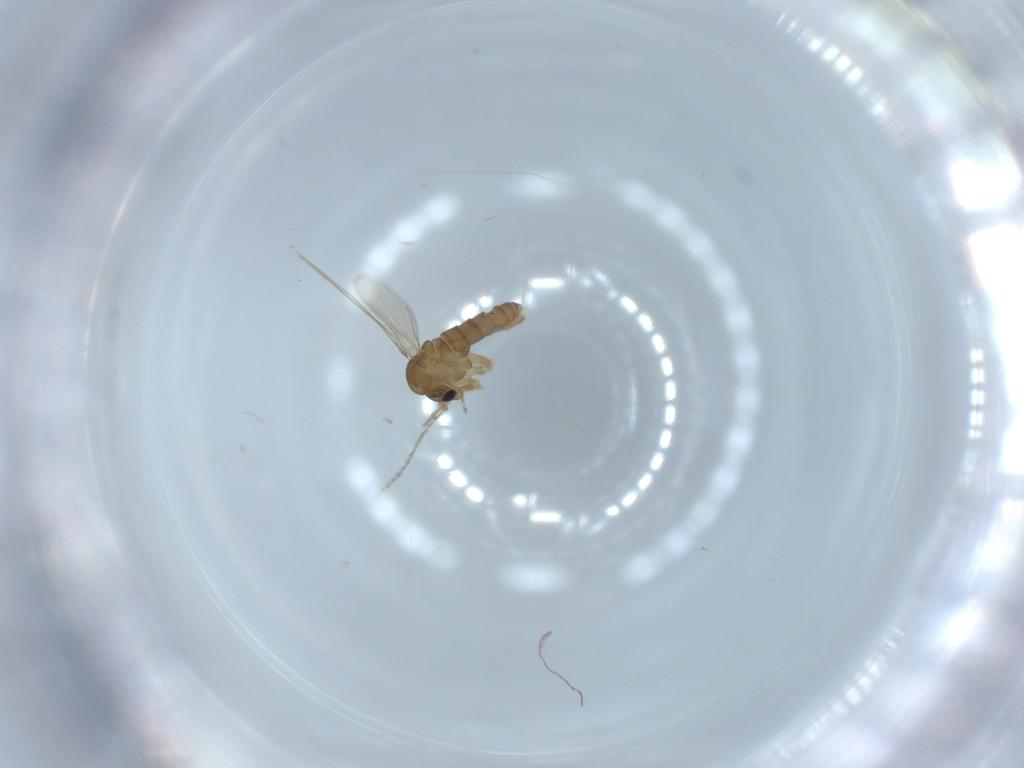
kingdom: Animalia
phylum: Arthropoda
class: Insecta
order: Diptera
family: Psychodidae
